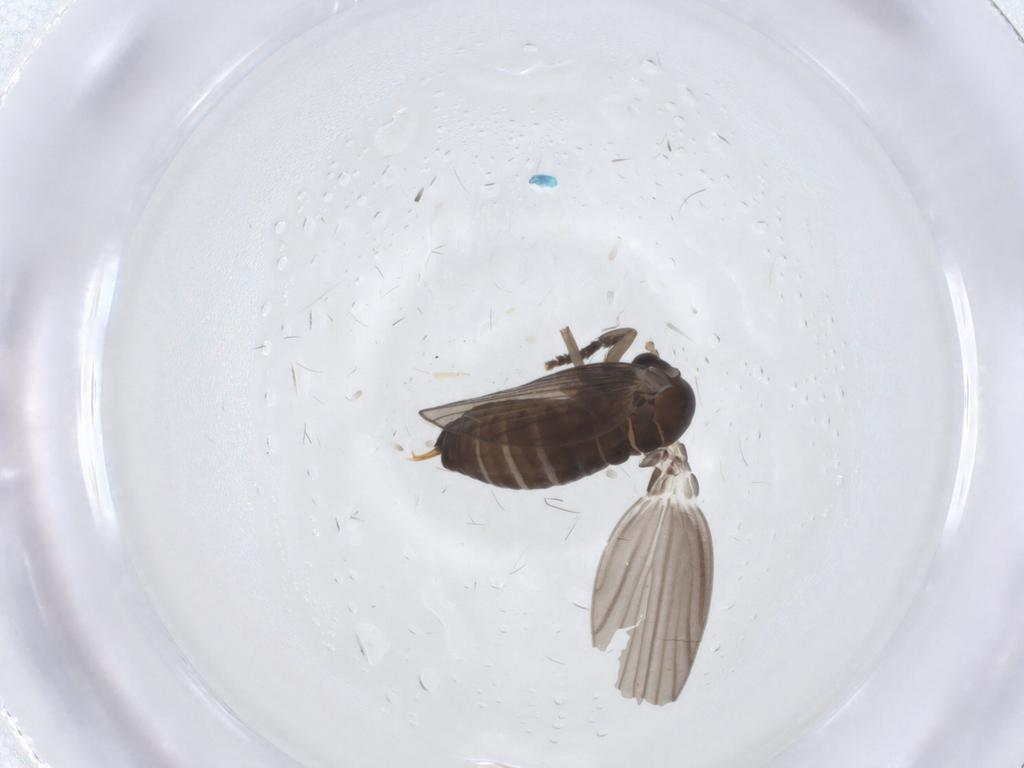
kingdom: Animalia
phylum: Arthropoda
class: Insecta
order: Diptera
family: Psychodidae
